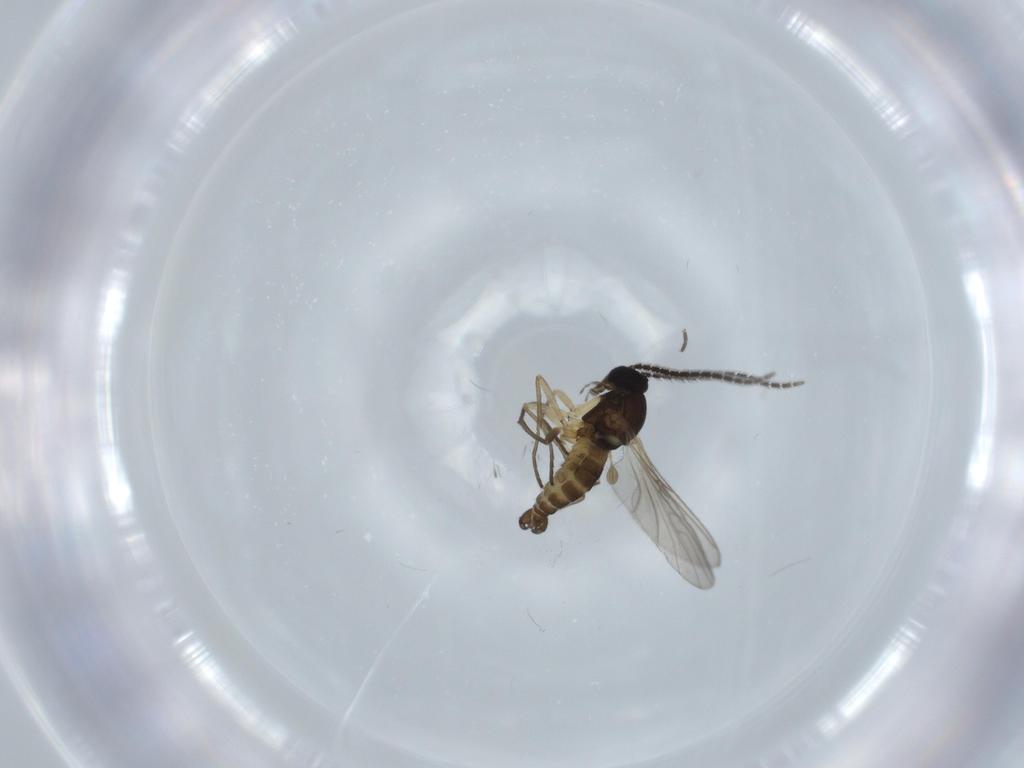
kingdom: Animalia
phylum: Arthropoda
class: Insecta
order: Diptera
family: Sciaridae
